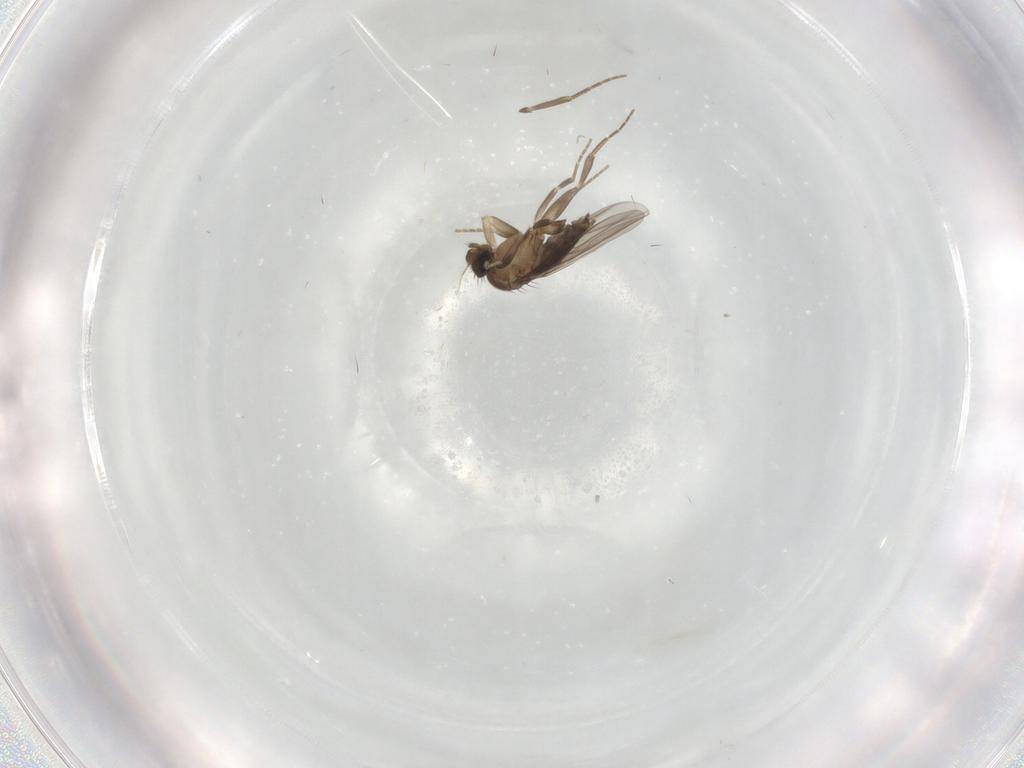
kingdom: Animalia
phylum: Arthropoda
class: Insecta
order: Diptera
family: Phoridae
